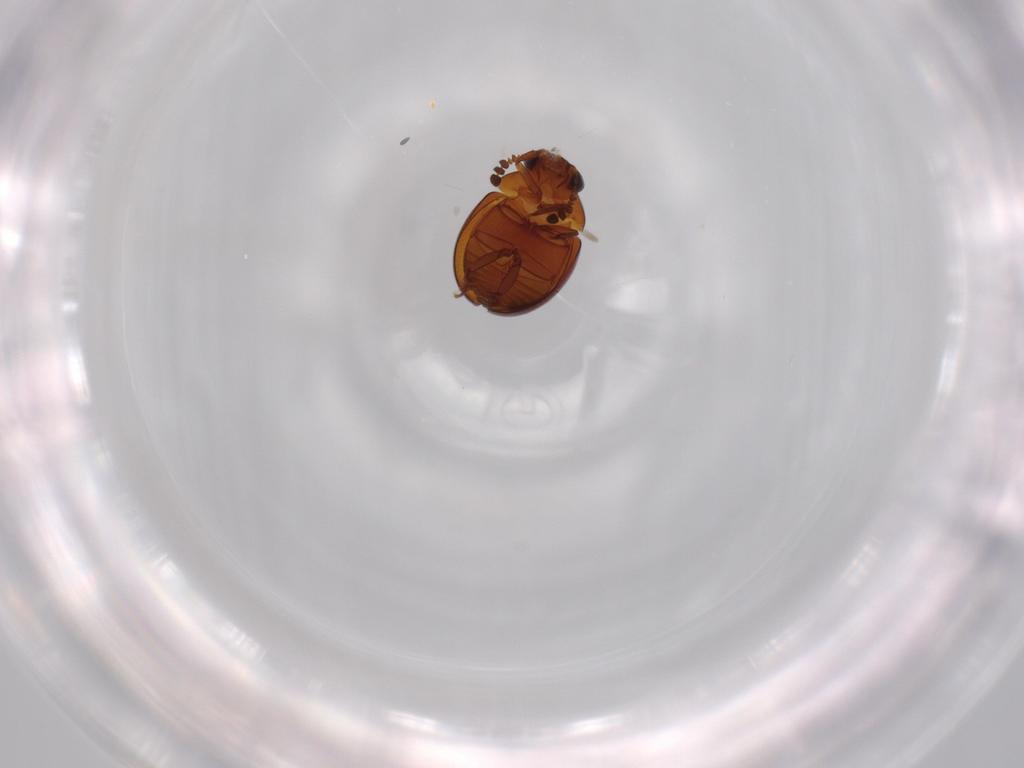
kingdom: Animalia
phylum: Arthropoda
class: Insecta
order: Coleoptera
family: Leiodidae
